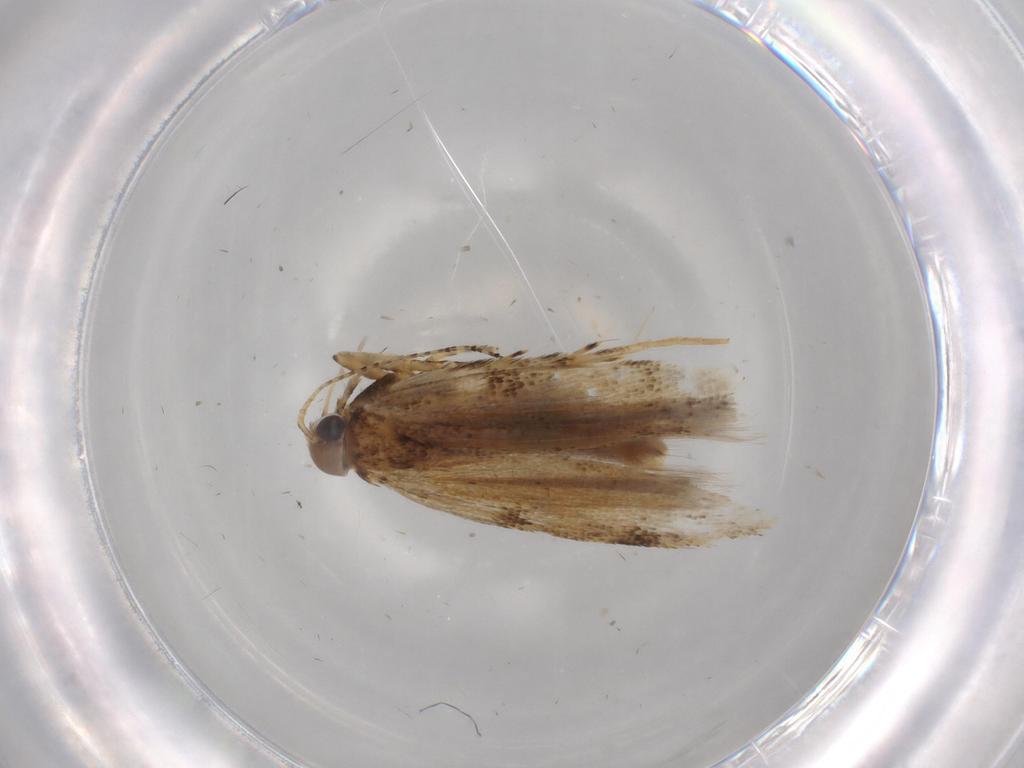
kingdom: Animalia
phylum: Arthropoda
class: Insecta
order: Lepidoptera
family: Gelechiidae
